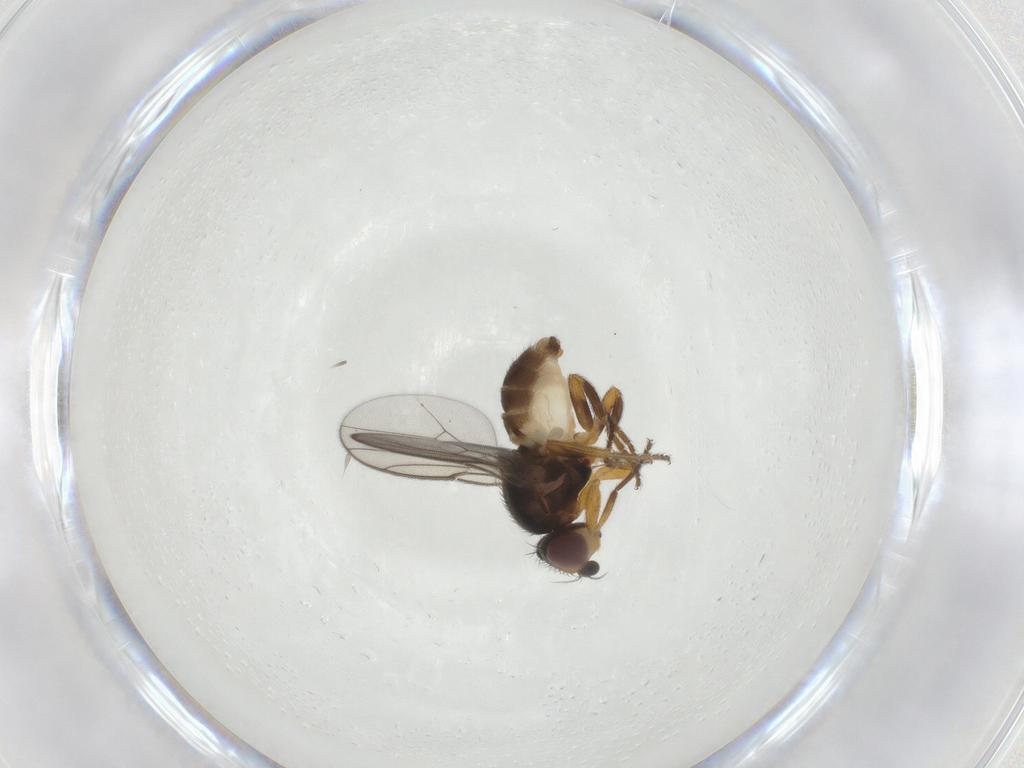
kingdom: Animalia
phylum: Arthropoda
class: Insecta
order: Diptera
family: Chloropidae
